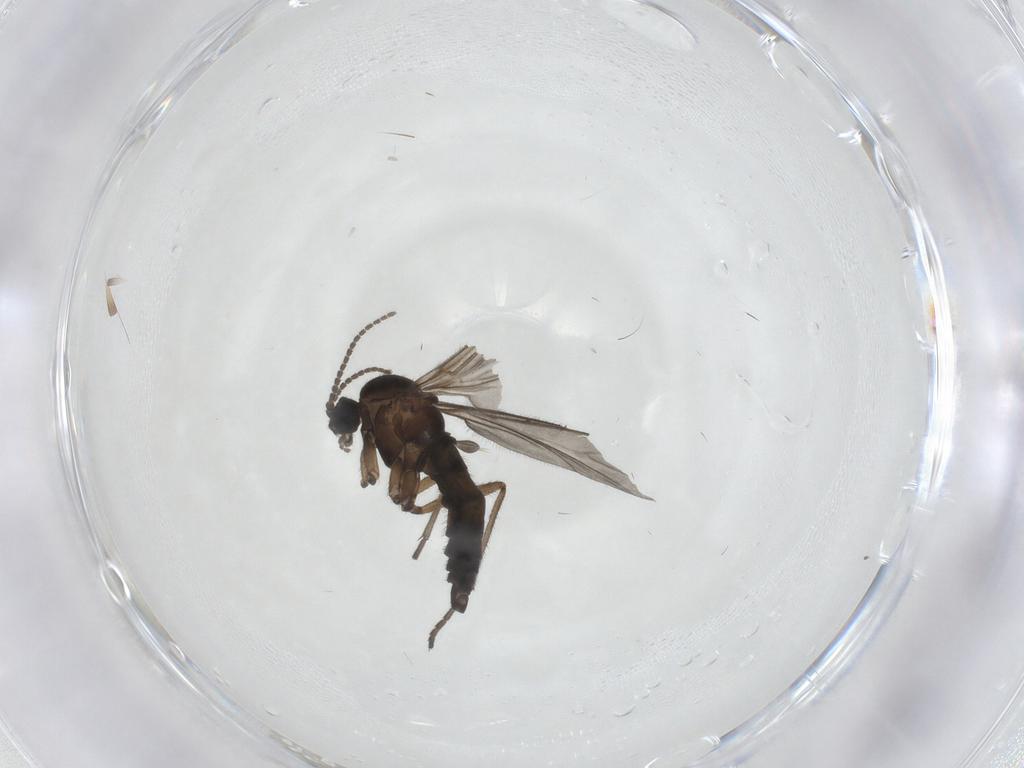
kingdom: Animalia
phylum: Arthropoda
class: Insecta
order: Diptera
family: Sciaridae
